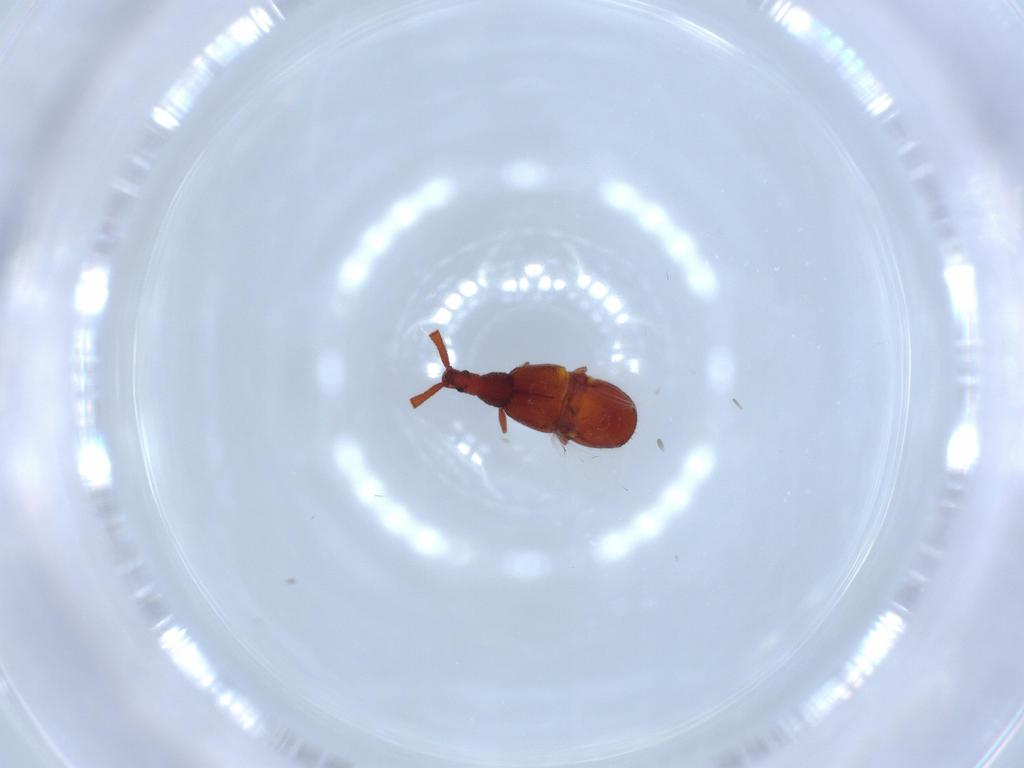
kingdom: Animalia
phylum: Arthropoda
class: Insecta
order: Coleoptera
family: Staphylinidae
